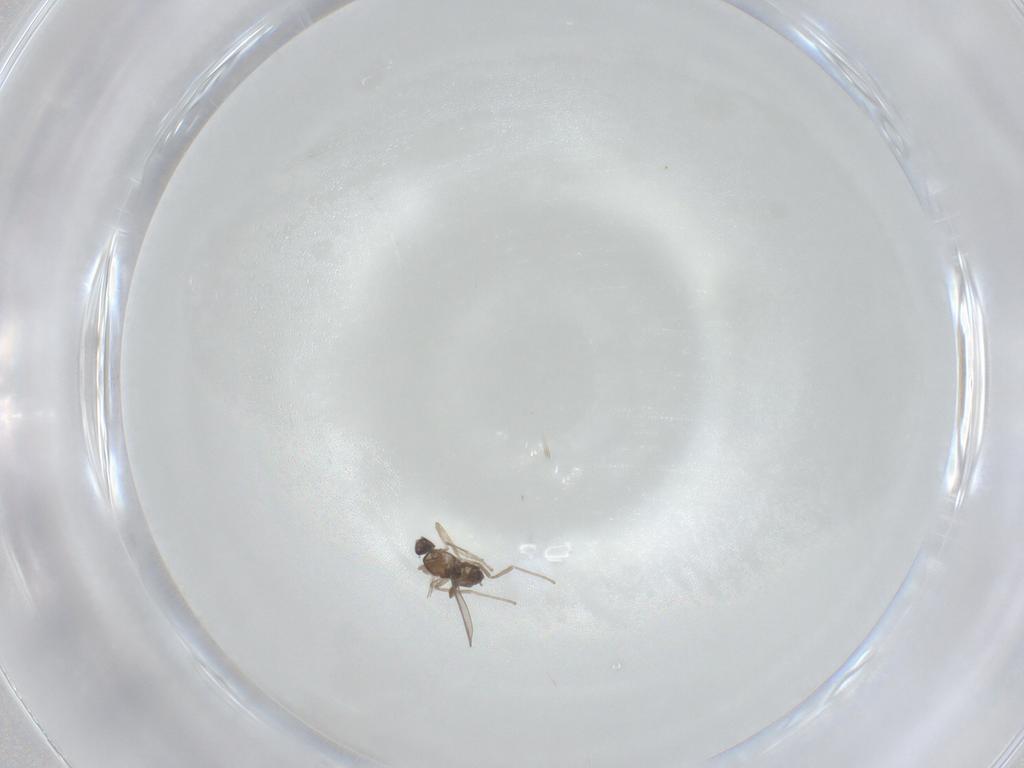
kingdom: Animalia
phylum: Arthropoda
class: Insecta
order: Diptera
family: Cecidomyiidae
